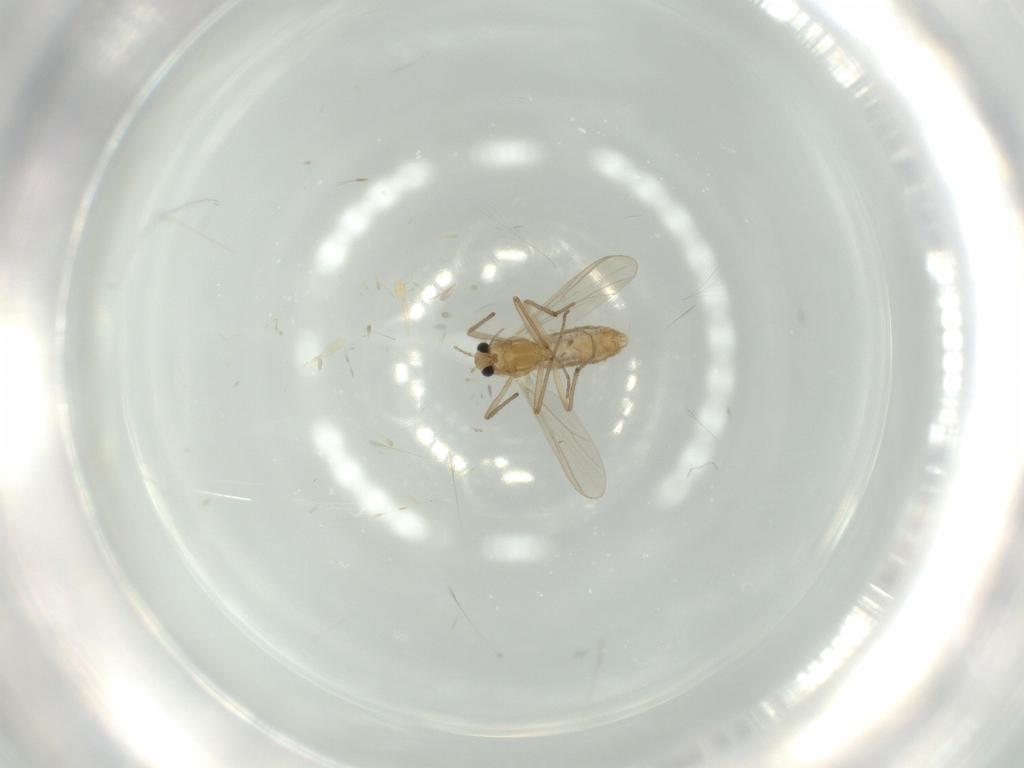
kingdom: Animalia
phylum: Arthropoda
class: Insecta
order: Diptera
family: Chironomidae
